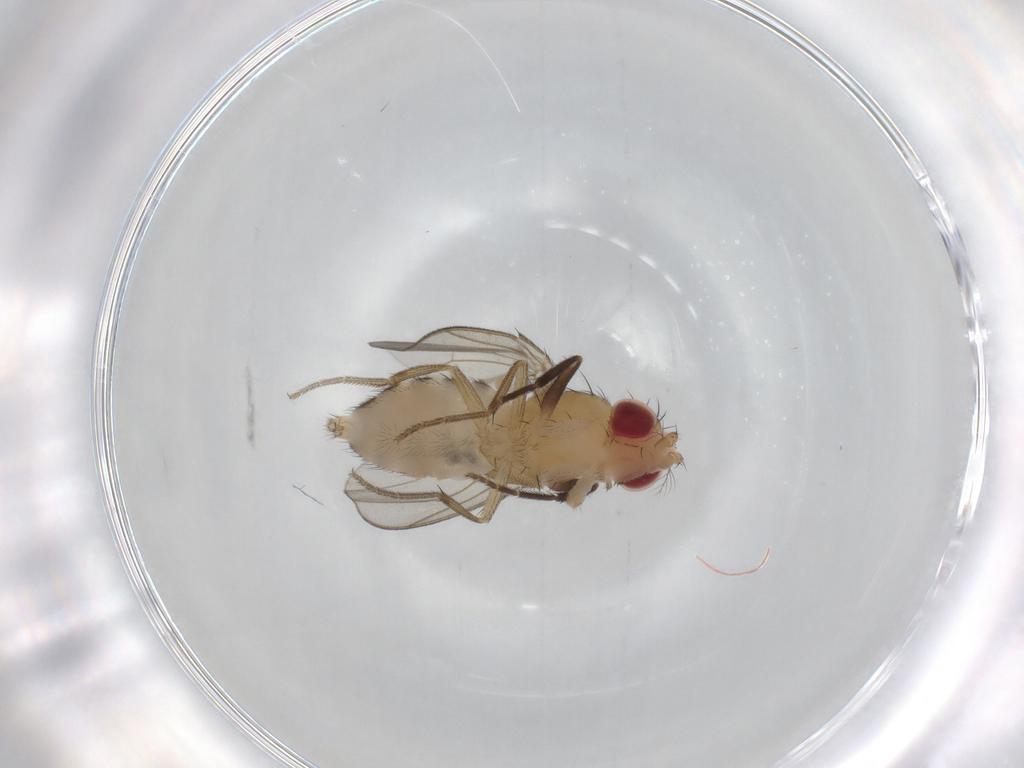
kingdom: Animalia
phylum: Arthropoda
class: Insecta
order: Diptera
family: Drosophilidae
